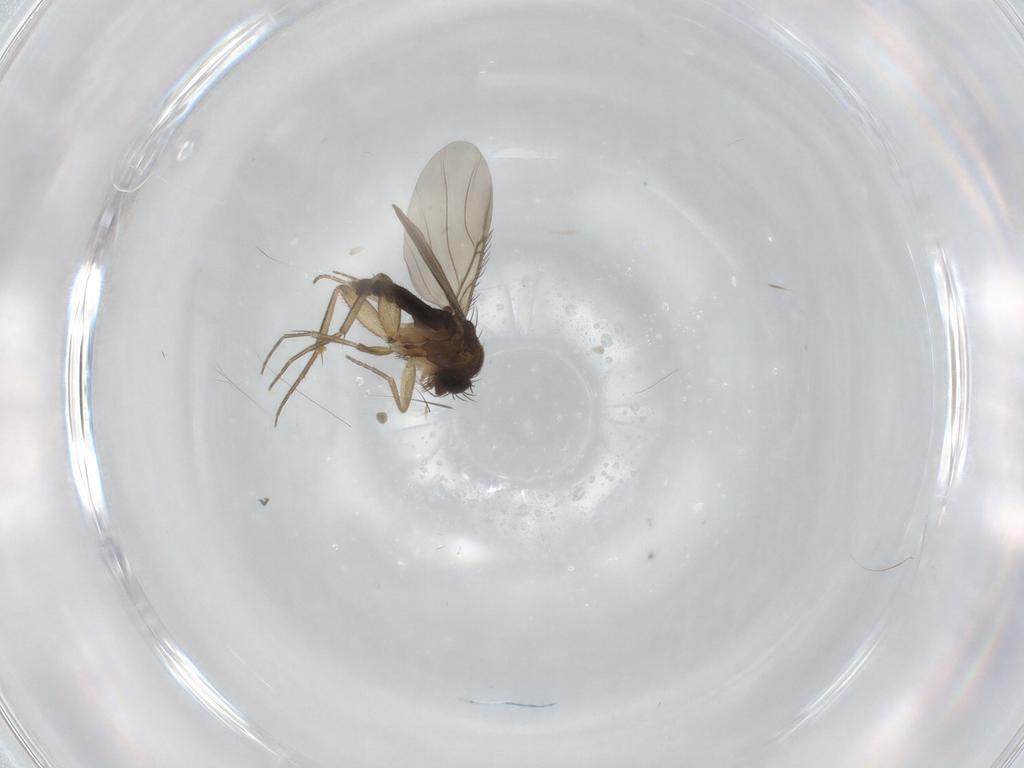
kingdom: Animalia
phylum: Arthropoda
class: Insecta
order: Diptera
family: Phoridae
